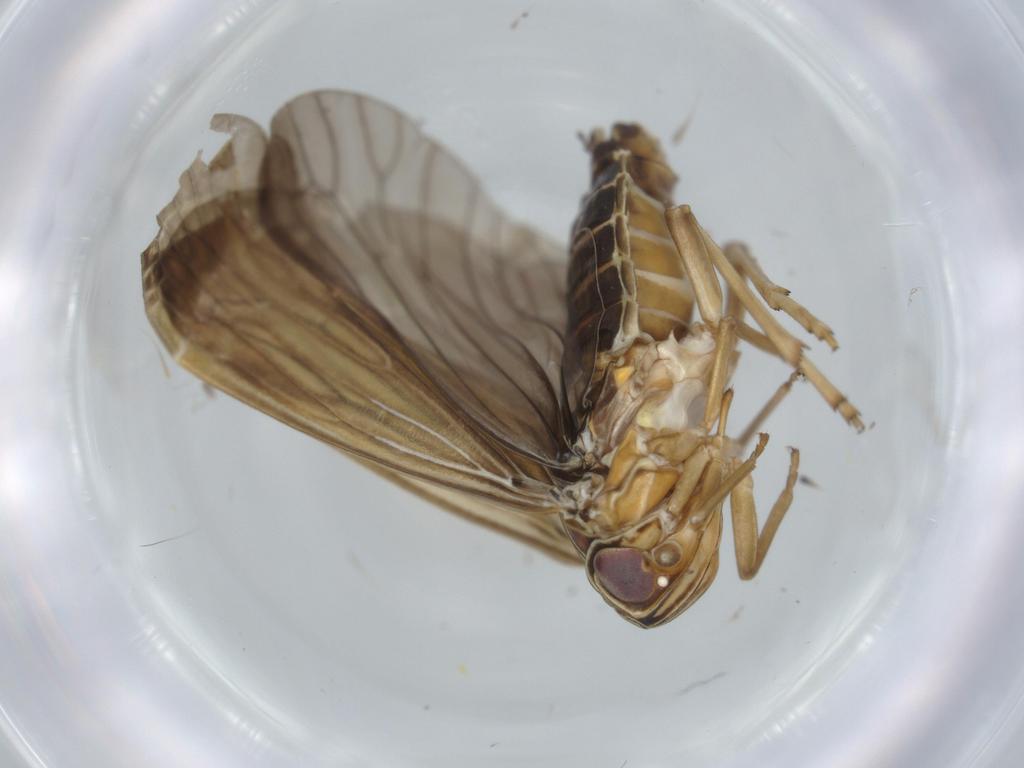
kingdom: Animalia
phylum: Arthropoda
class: Insecta
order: Hemiptera
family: Achilidae
